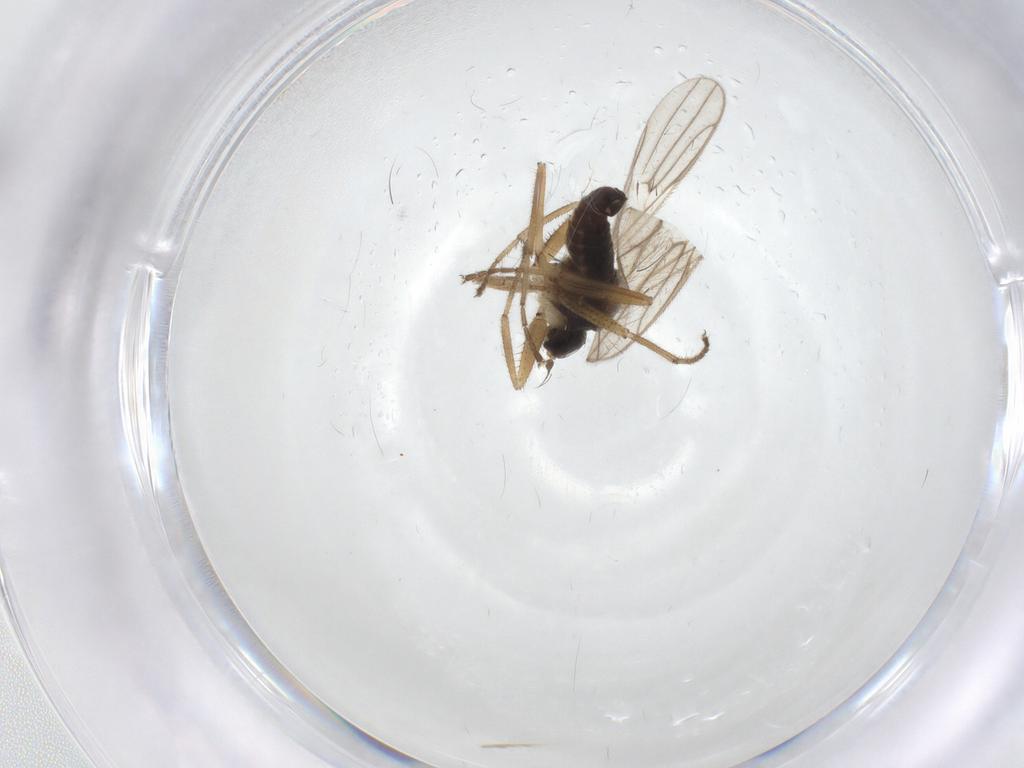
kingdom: Animalia
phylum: Arthropoda
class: Insecta
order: Diptera
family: Hybotidae
